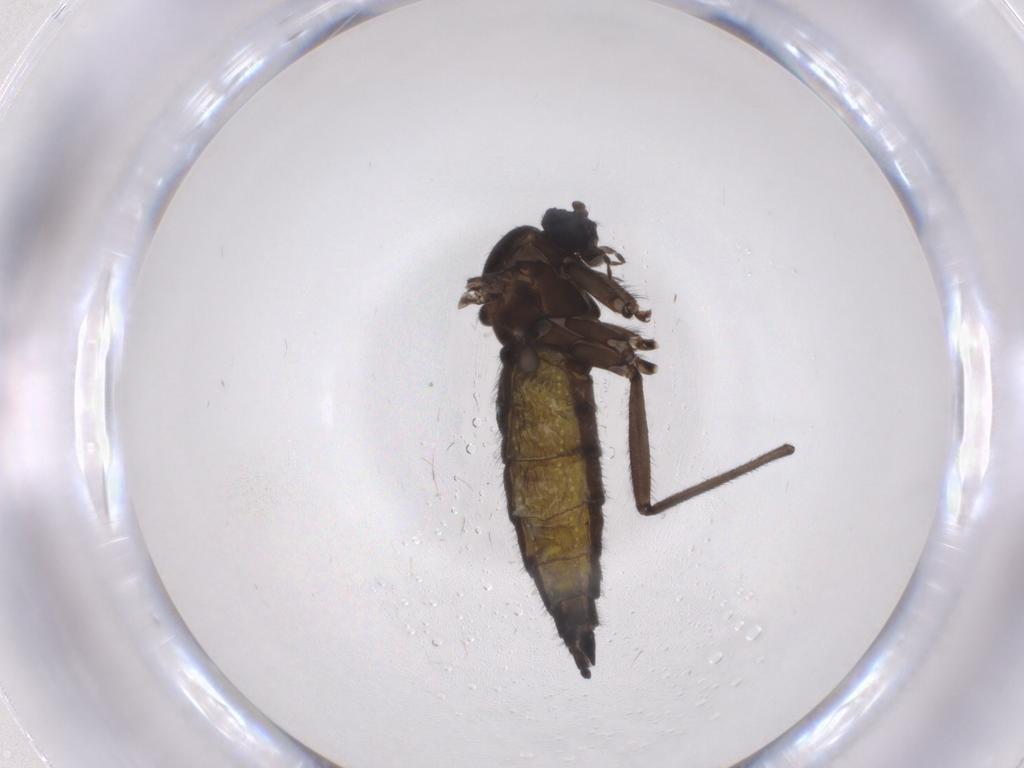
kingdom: Animalia
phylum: Arthropoda
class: Insecta
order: Diptera
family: Sciaridae
